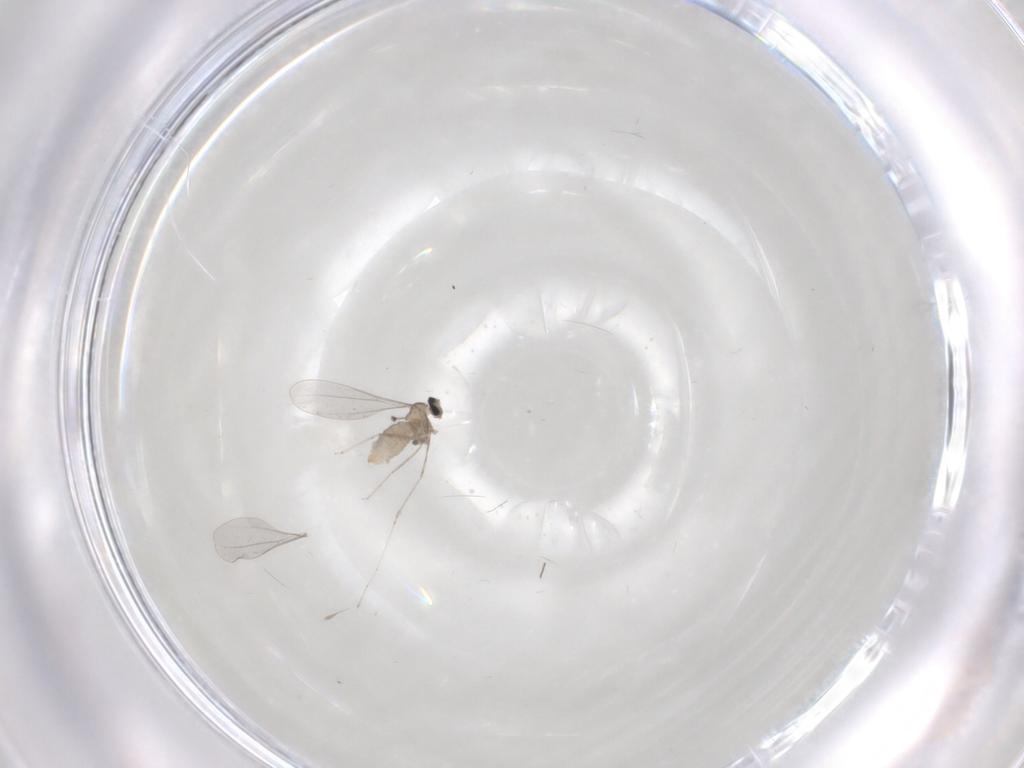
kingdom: Animalia
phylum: Arthropoda
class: Insecta
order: Diptera
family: Cecidomyiidae
